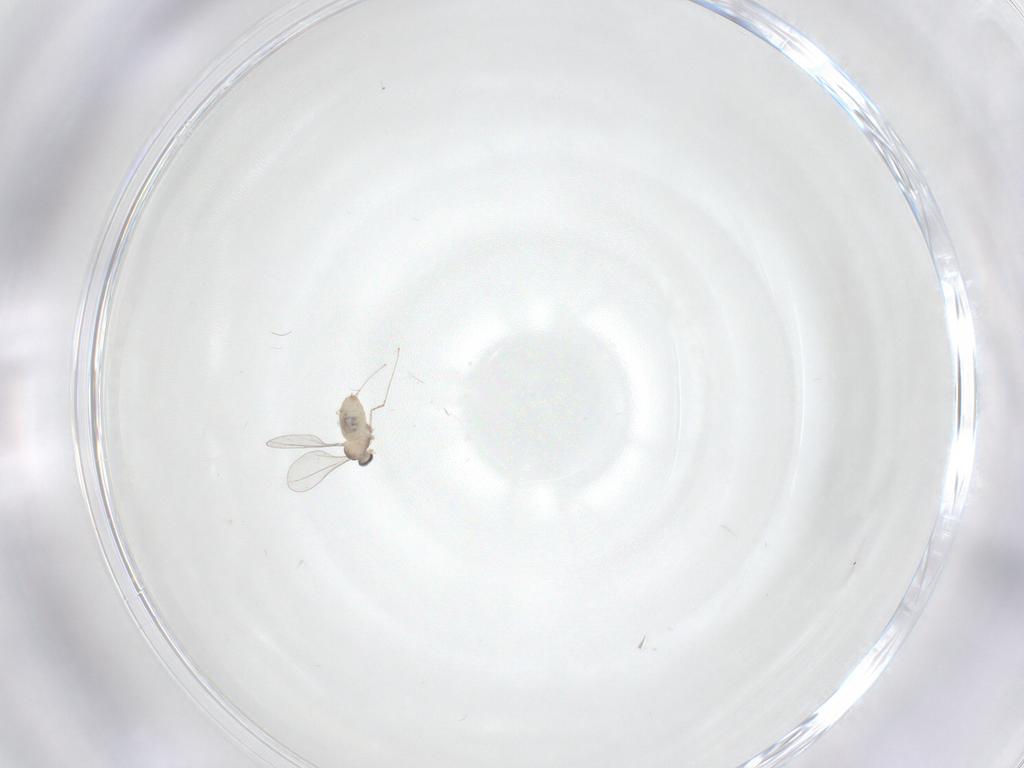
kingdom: Animalia
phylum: Arthropoda
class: Insecta
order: Diptera
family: Cecidomyiidae
